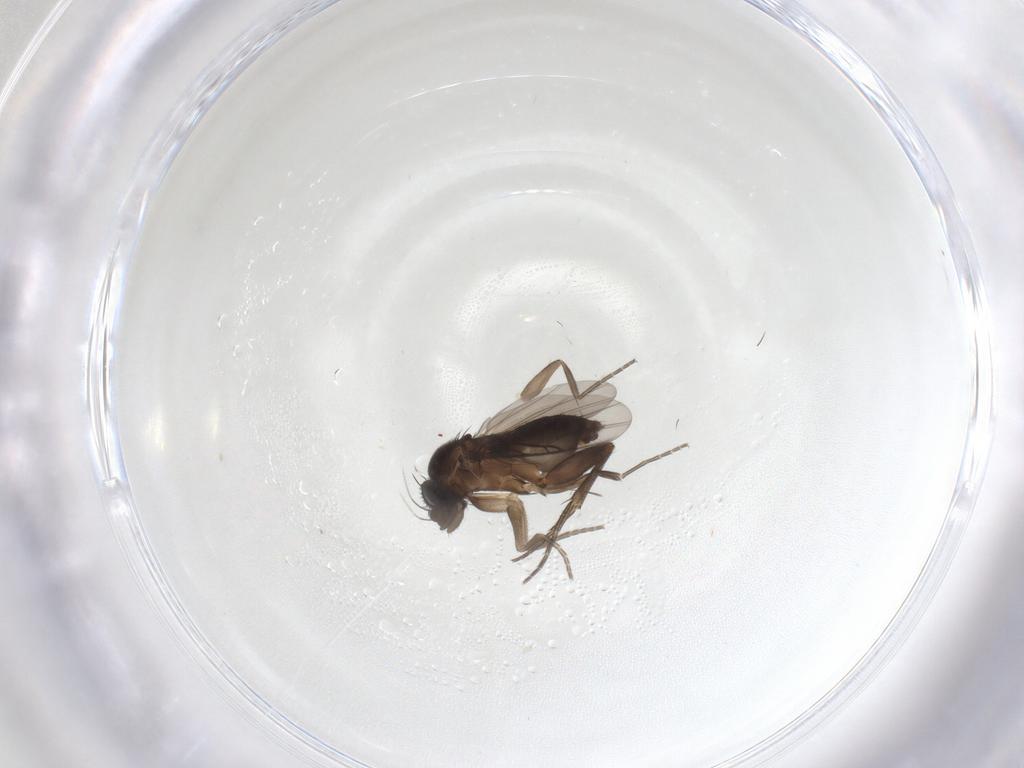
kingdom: Animalia
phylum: Arthropoda
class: Insecta
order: Diptera
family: Phoridae
